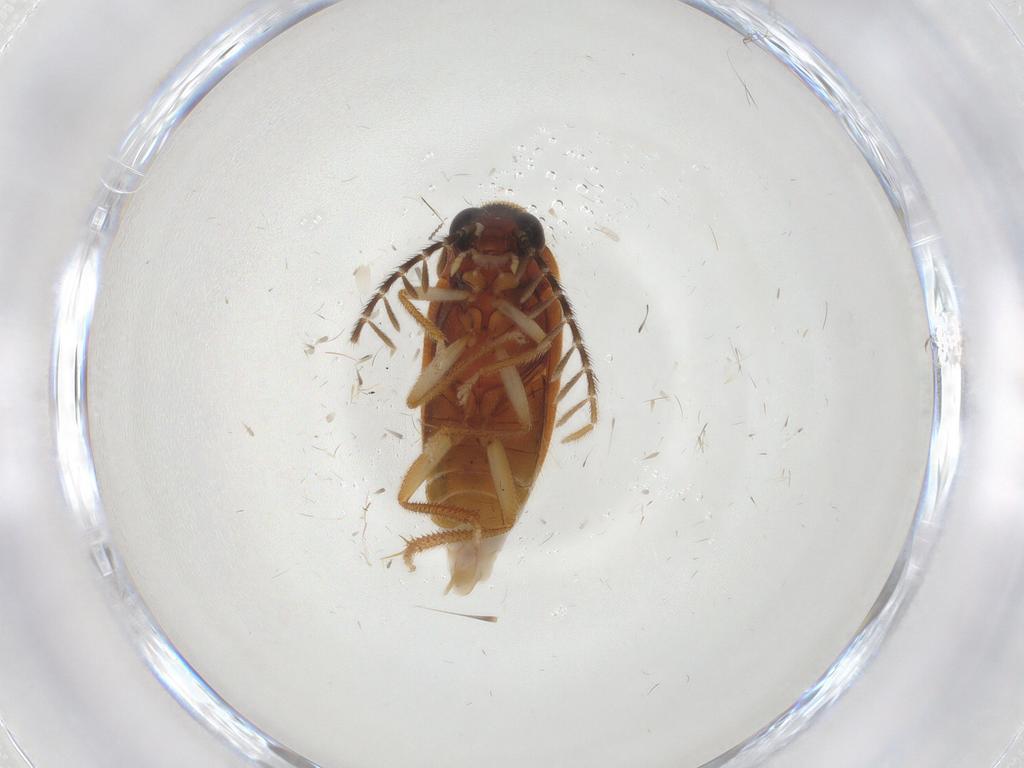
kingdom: Animalia
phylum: Arthropoda
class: Insecta
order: Coleoptera
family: Ptilodactylidae
